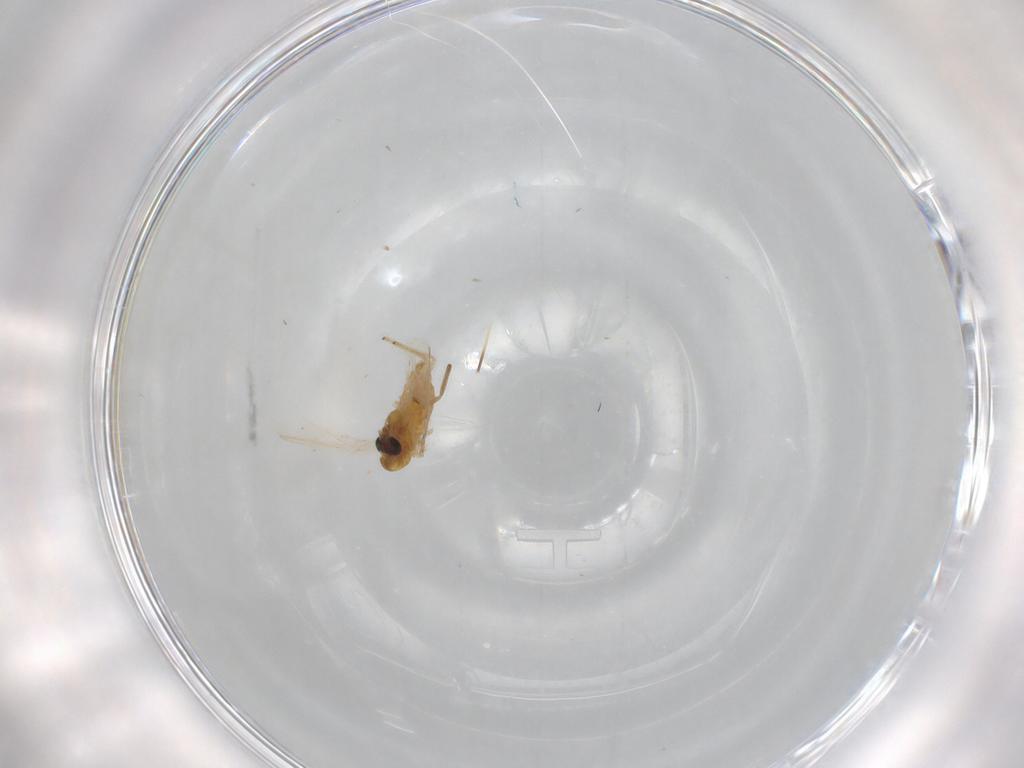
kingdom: Animalia
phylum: Arthropoda
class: Insecta
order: Diptera
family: Chironomidae
